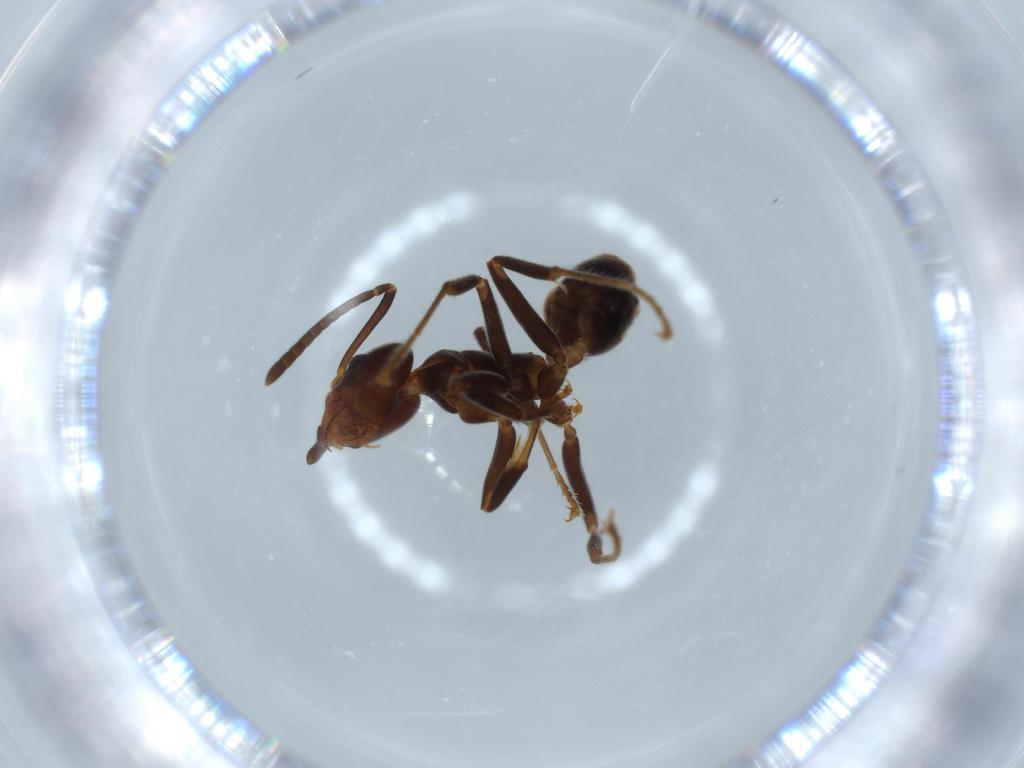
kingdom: Animalia
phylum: Arthropoda
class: Insecta
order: Hymenoptera
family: Formicidae
